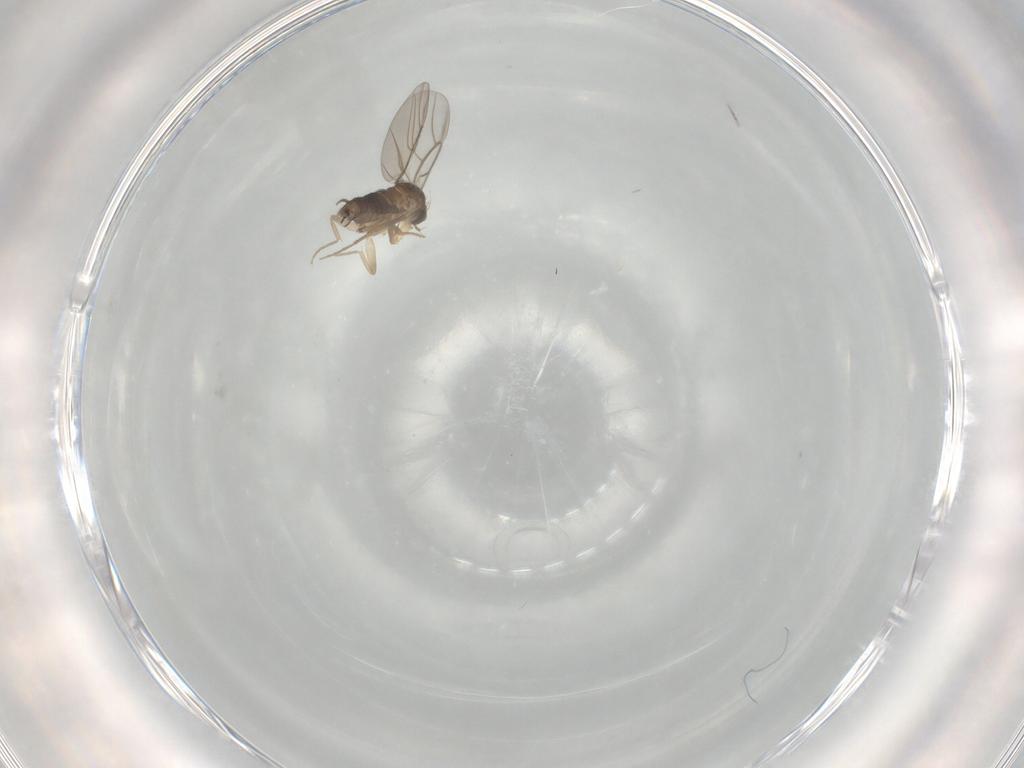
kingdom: Animalia
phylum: Arthropoda
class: Insecta
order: Diptera
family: Cecidomyiidae
